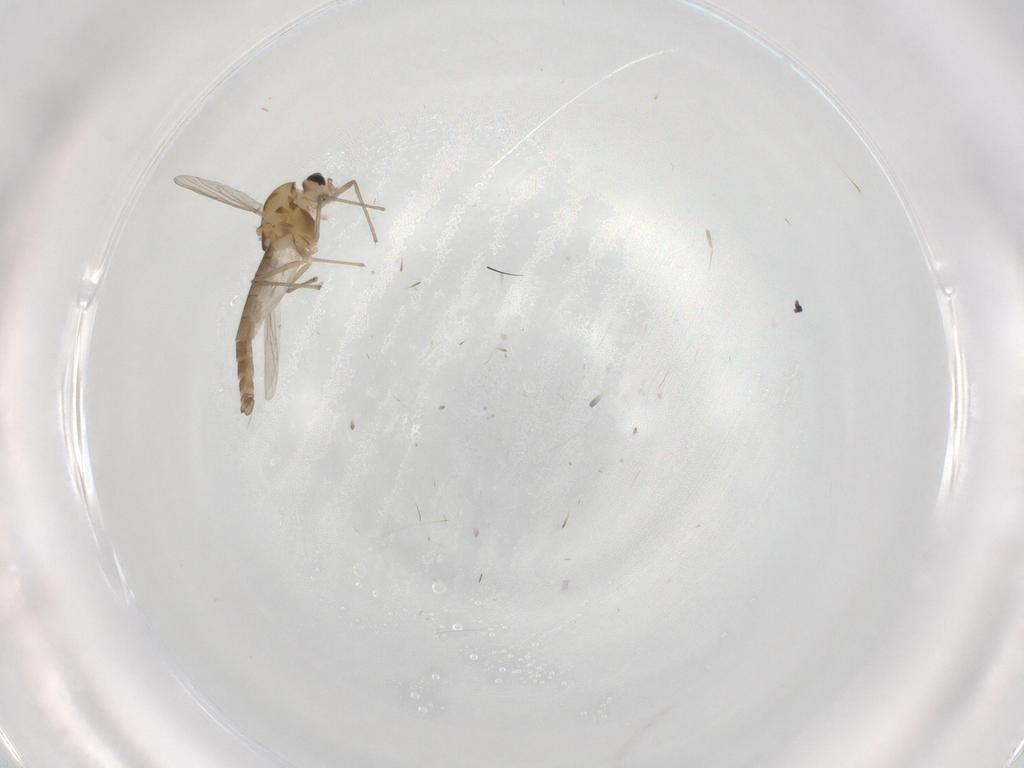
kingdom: Animalia
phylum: Arthropoda
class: Insecta
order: Diptera
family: Chironomidae
